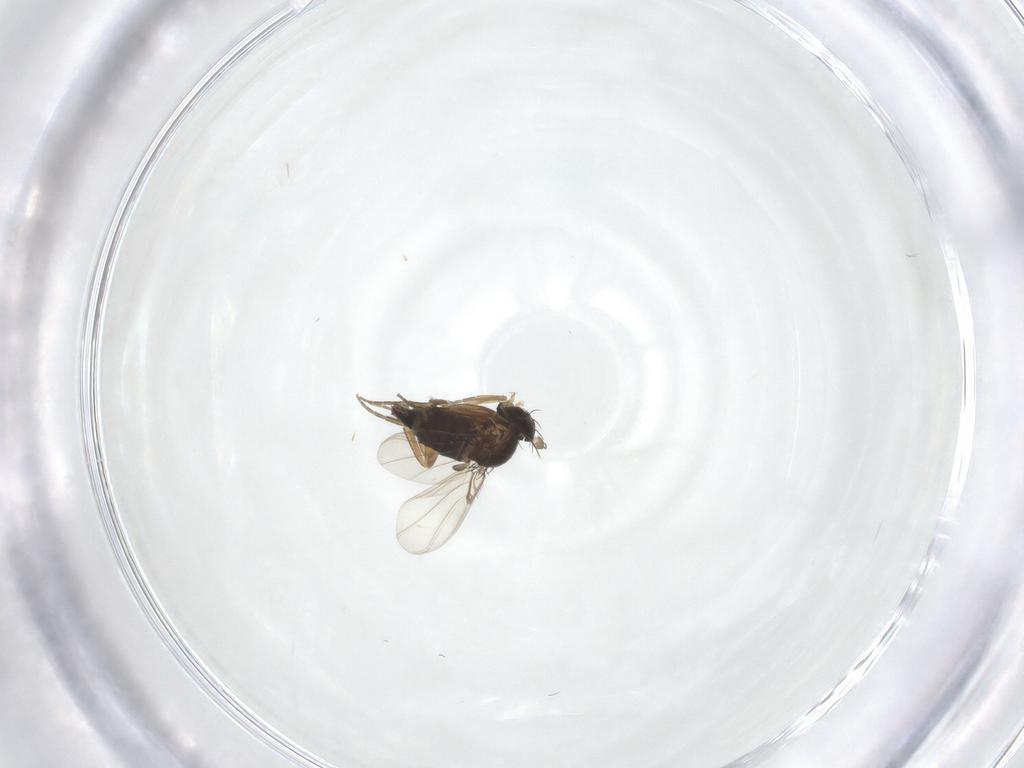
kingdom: Animalia
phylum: Arthropoda
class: Insecta
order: Diptera
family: Phoridae
